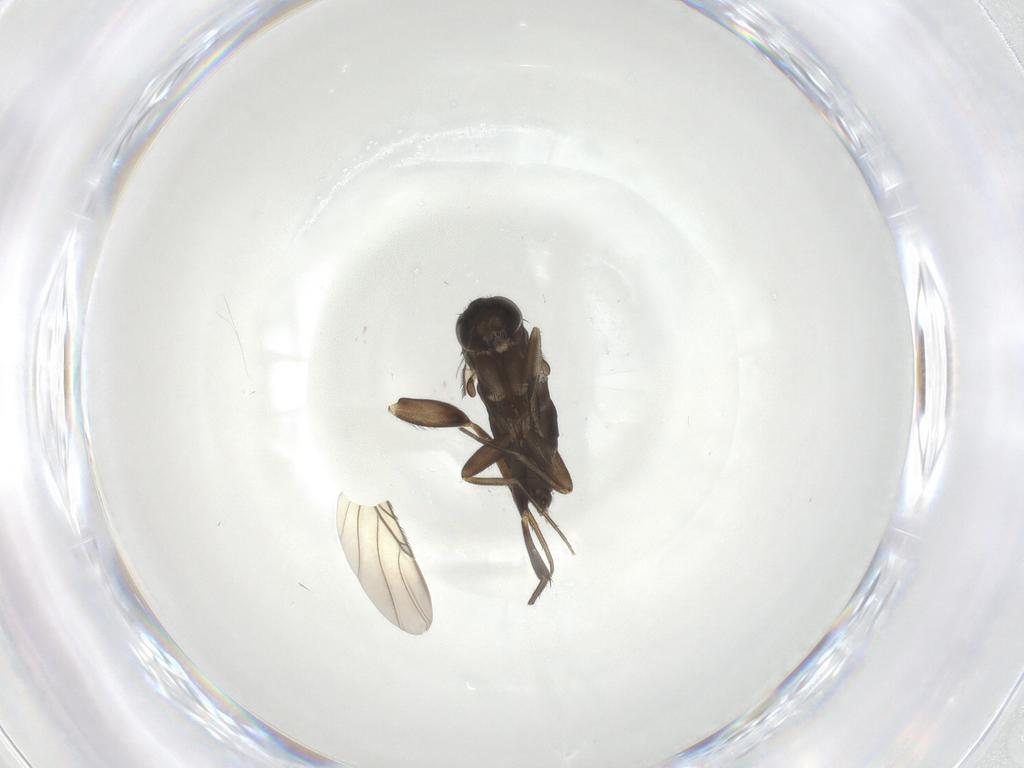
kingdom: Animalia
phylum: Arthropoda
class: Insecta
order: Diptera
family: Phoridae
